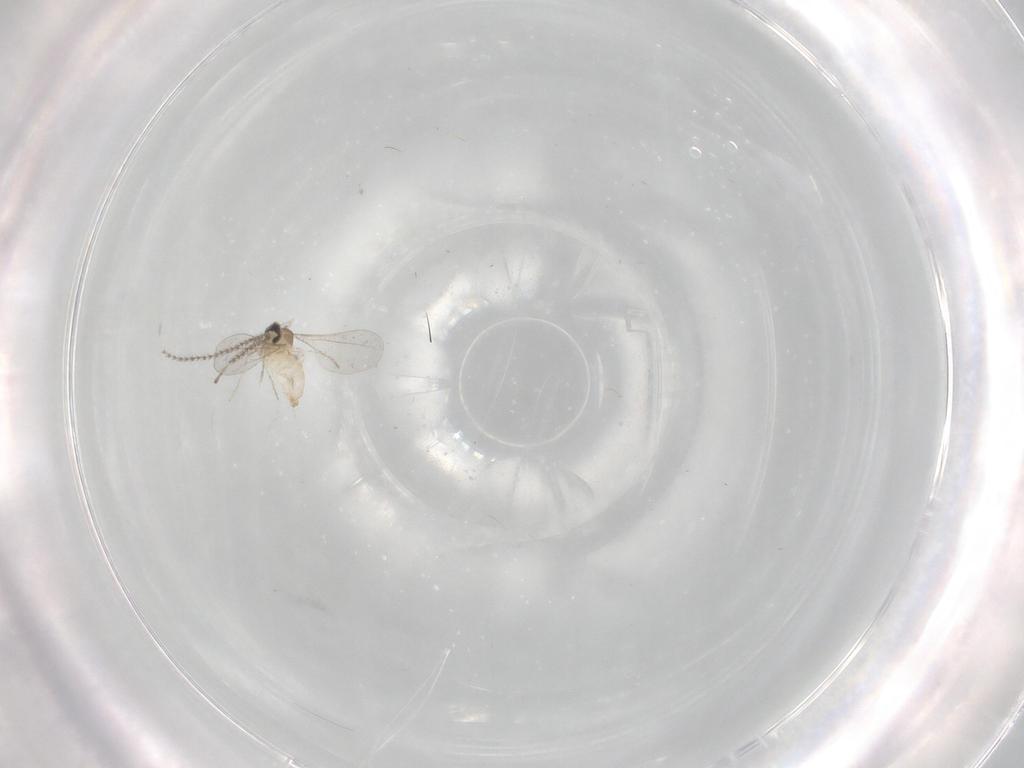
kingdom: Animalia
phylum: Arthropoda
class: Insecta
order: Diptera
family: Cecidomyiidae
